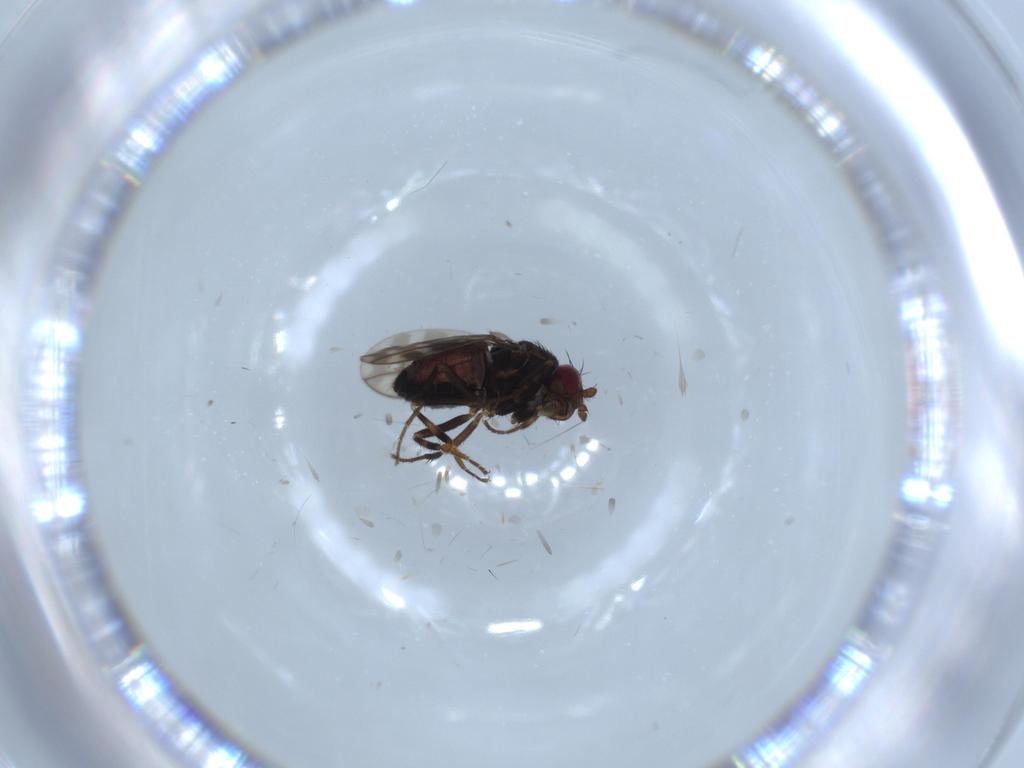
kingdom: Animalia
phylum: Arthropoda
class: Insecta
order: Diptera
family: Sphaeroceridae
